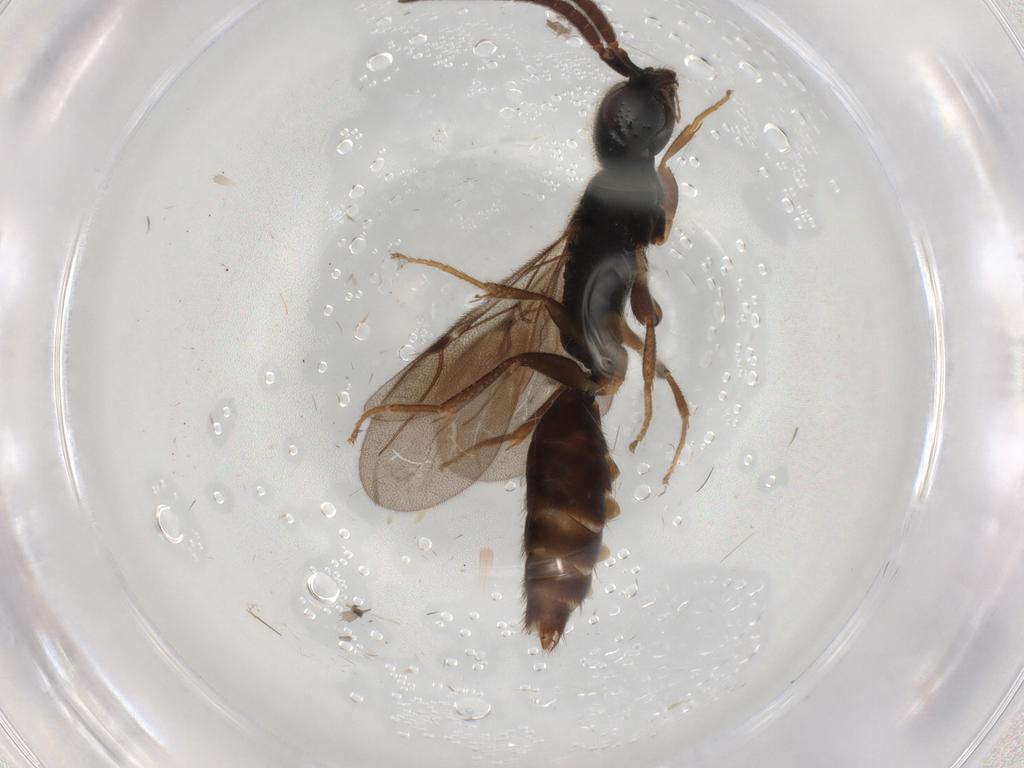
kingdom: Animalia
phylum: Arthropoda
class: Insecta
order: Hymenoptera
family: Bethylidae
